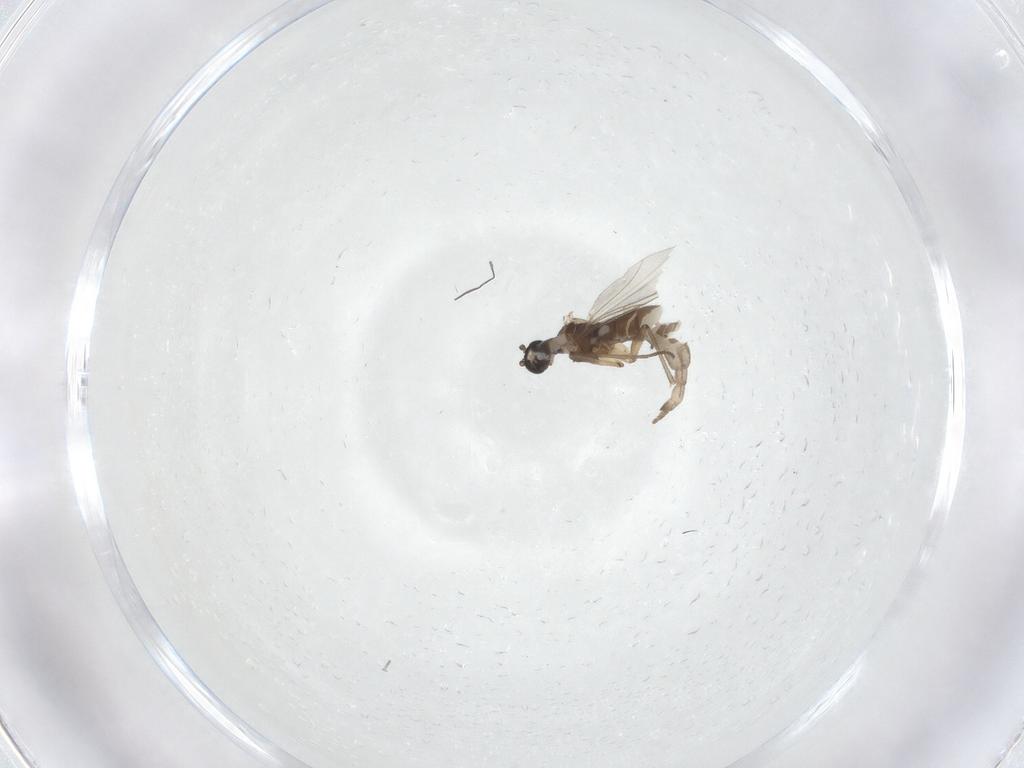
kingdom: Animalia
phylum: Arthropoda
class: Insecta
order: Diptera
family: Sciaridae
